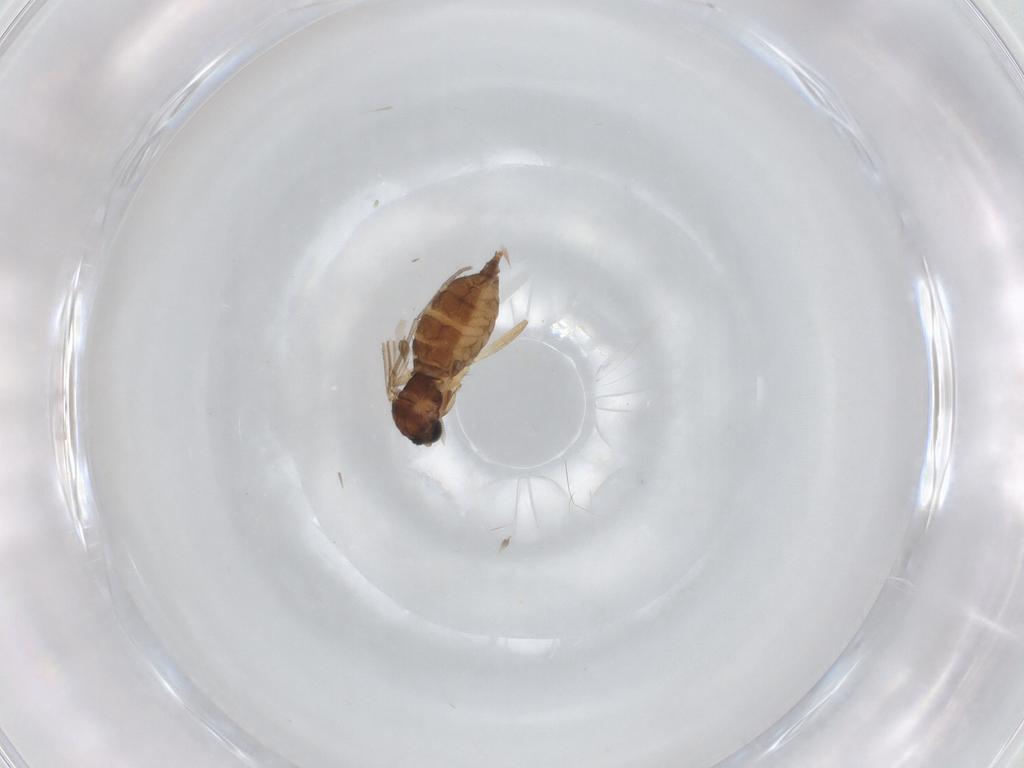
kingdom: Animalia
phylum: Arthropoda
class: Insecta
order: Diptera
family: Sciaridae
